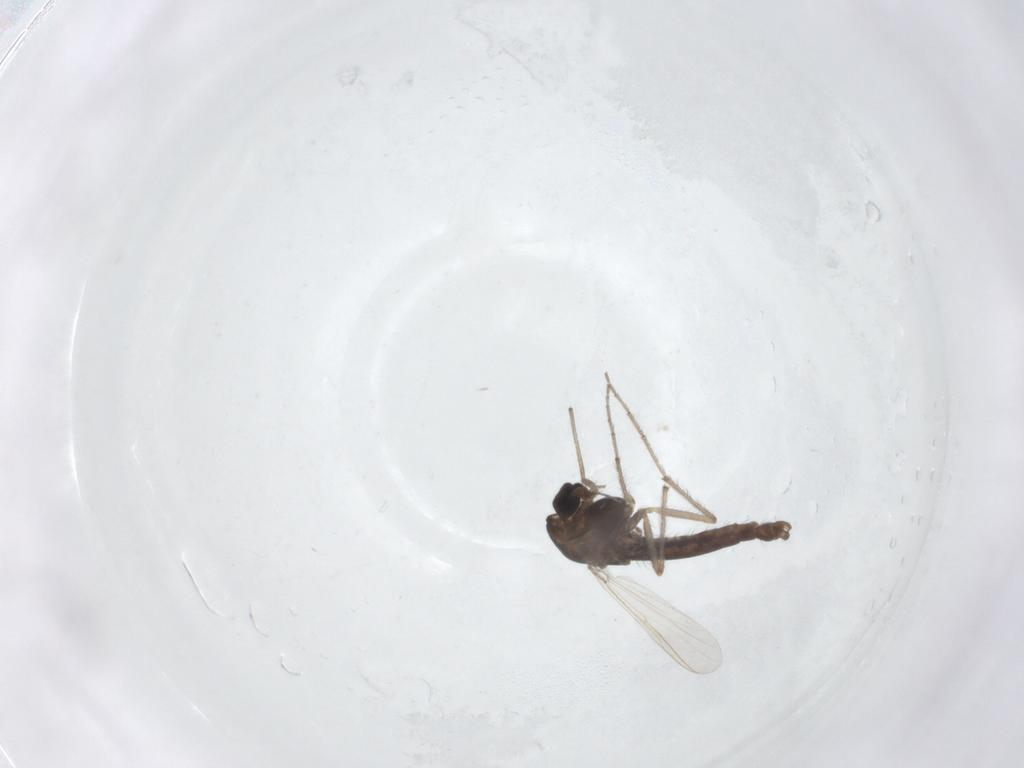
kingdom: Animalia
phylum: Arthropoda
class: Insecta
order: Diptera
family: Chironomidae
